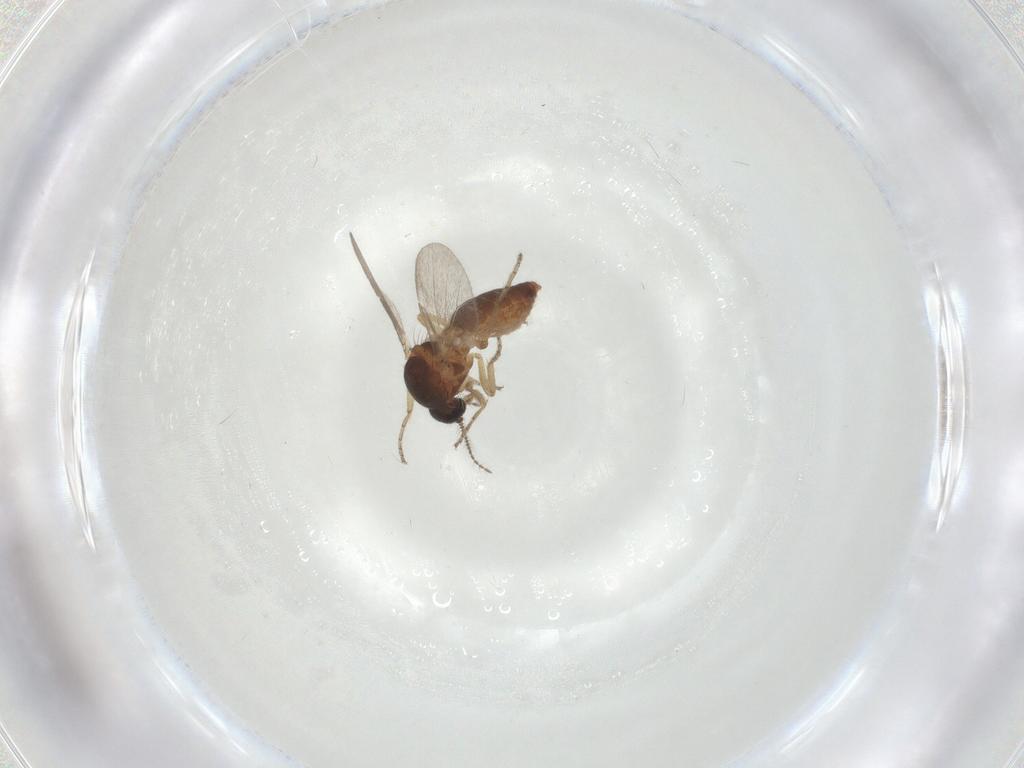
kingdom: Animalia
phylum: Arthropoda
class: Insecta
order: Diptera
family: Ceratopogonidae
